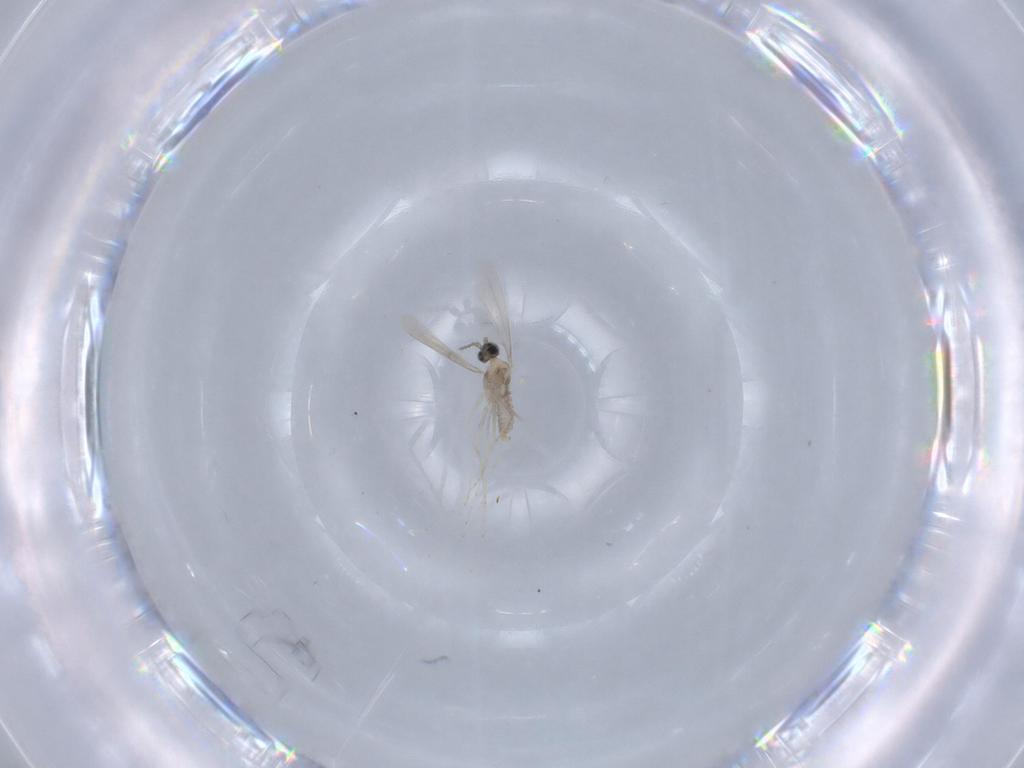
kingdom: Animalia
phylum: Arthropoda
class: Insecta
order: Diptera
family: Cecidomyiidae
